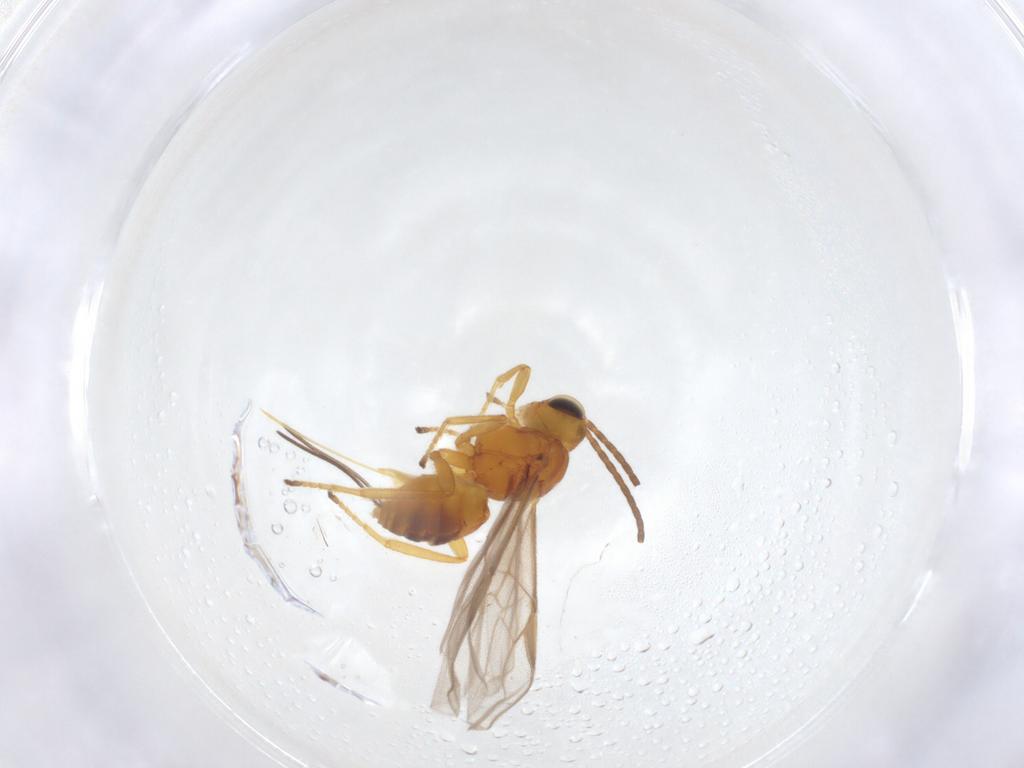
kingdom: Animalia
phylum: Arthropoda
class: Insecta
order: Hymenoptera
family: Braconidae
